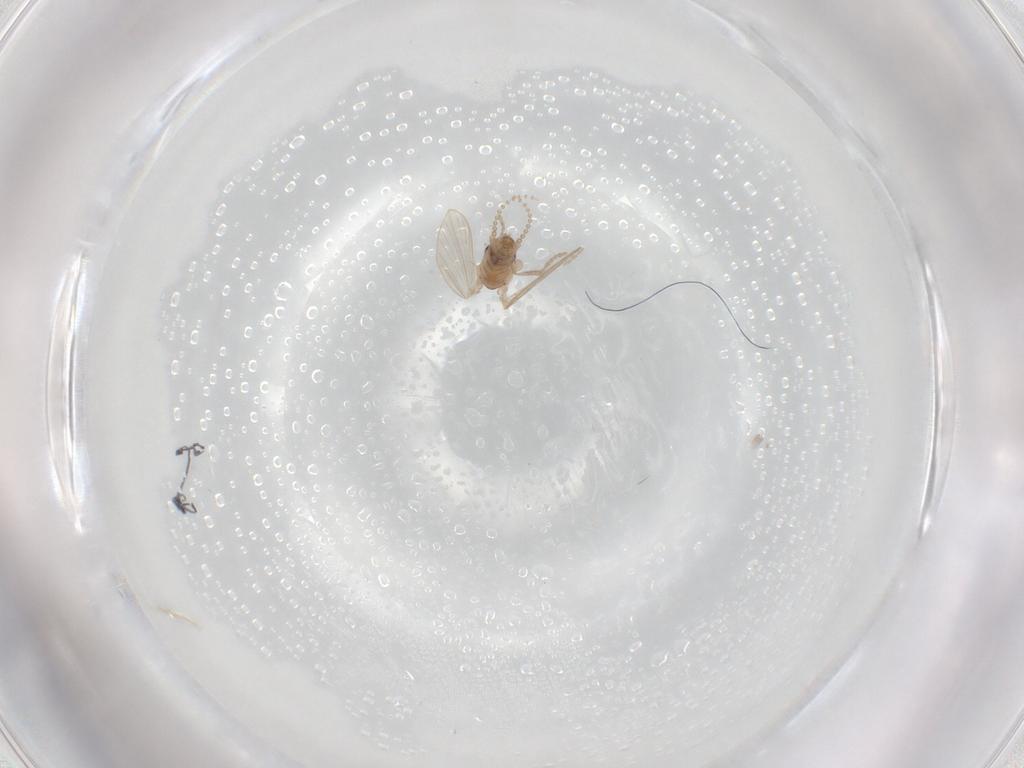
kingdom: Animalia
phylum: Arthropoda
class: Insecta
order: Diptera
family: Psychodidae
